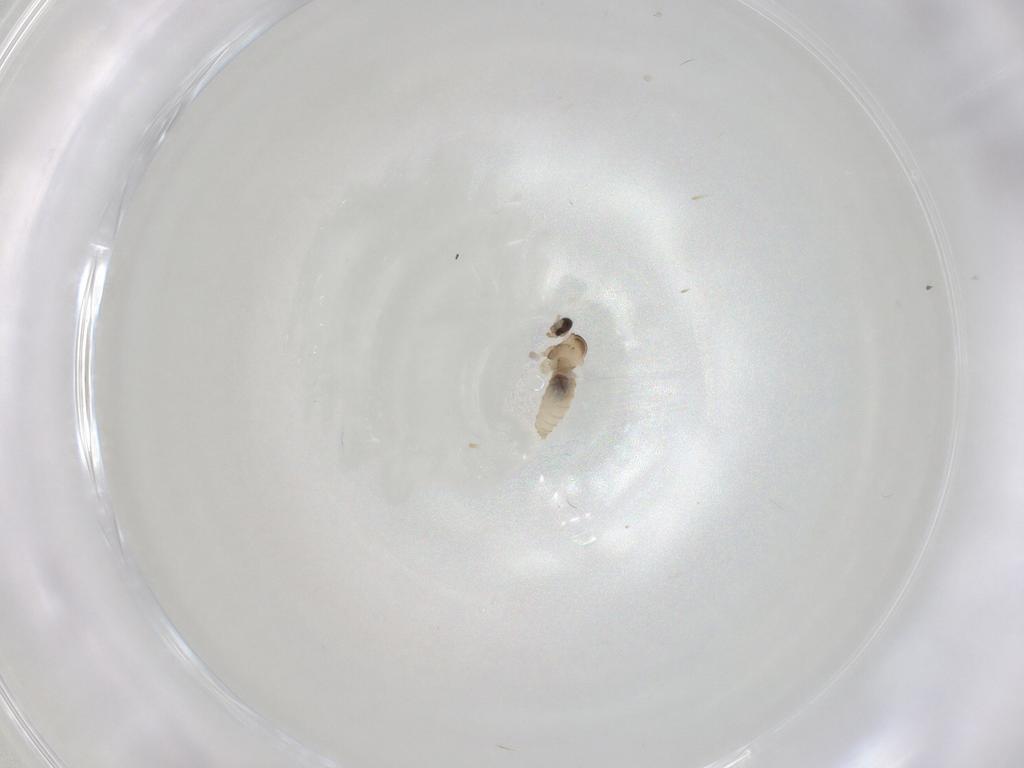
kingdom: Animalia
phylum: Arthropoda
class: Insecta
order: Diptera
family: Cecidomyiidae
